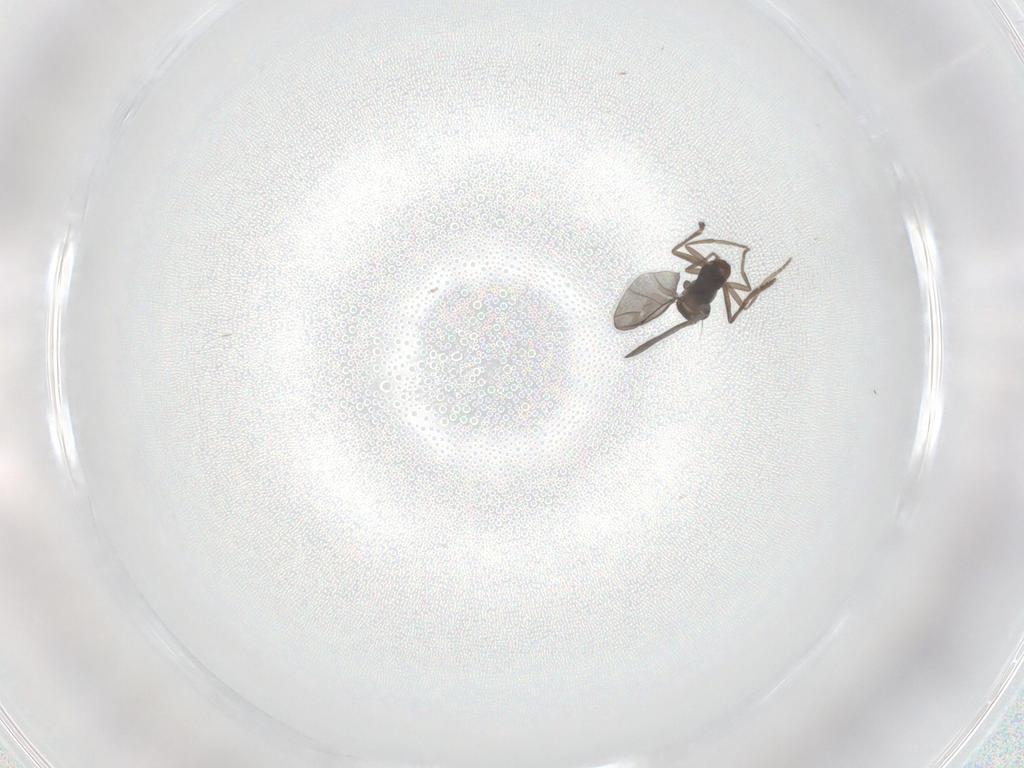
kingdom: Animalia
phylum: Arthropoda
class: Insecta
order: Diptera
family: Phoridae
